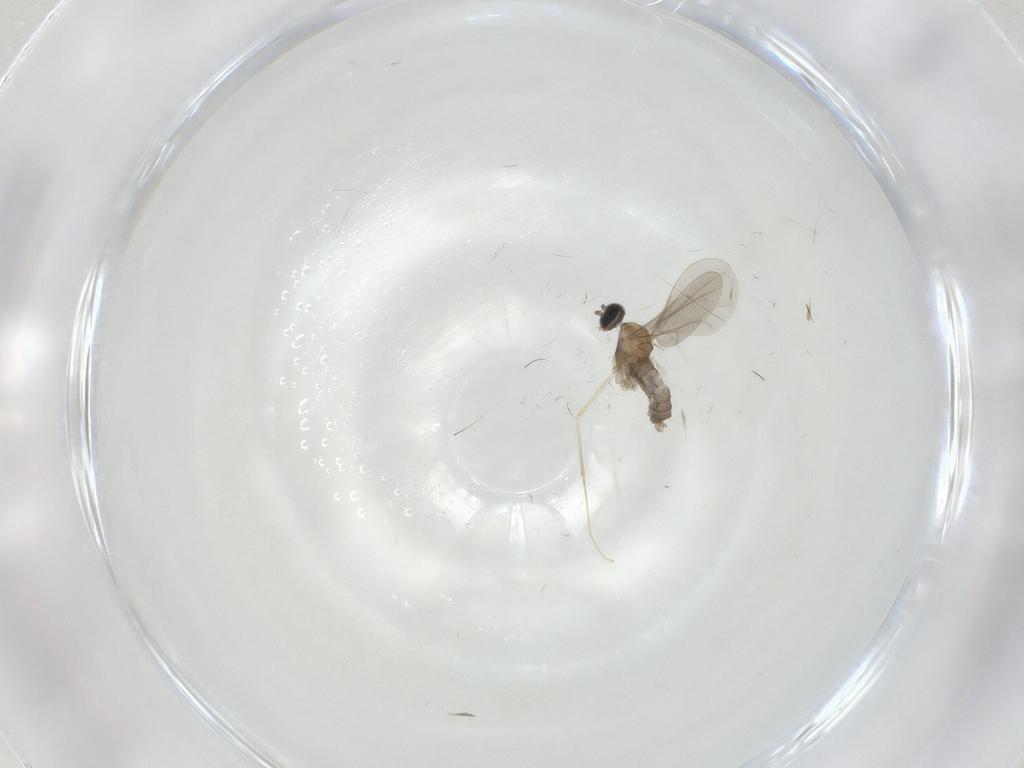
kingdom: Animalia
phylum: Arthropoda
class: Insecta
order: Diptera
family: Cecidomyiidae
